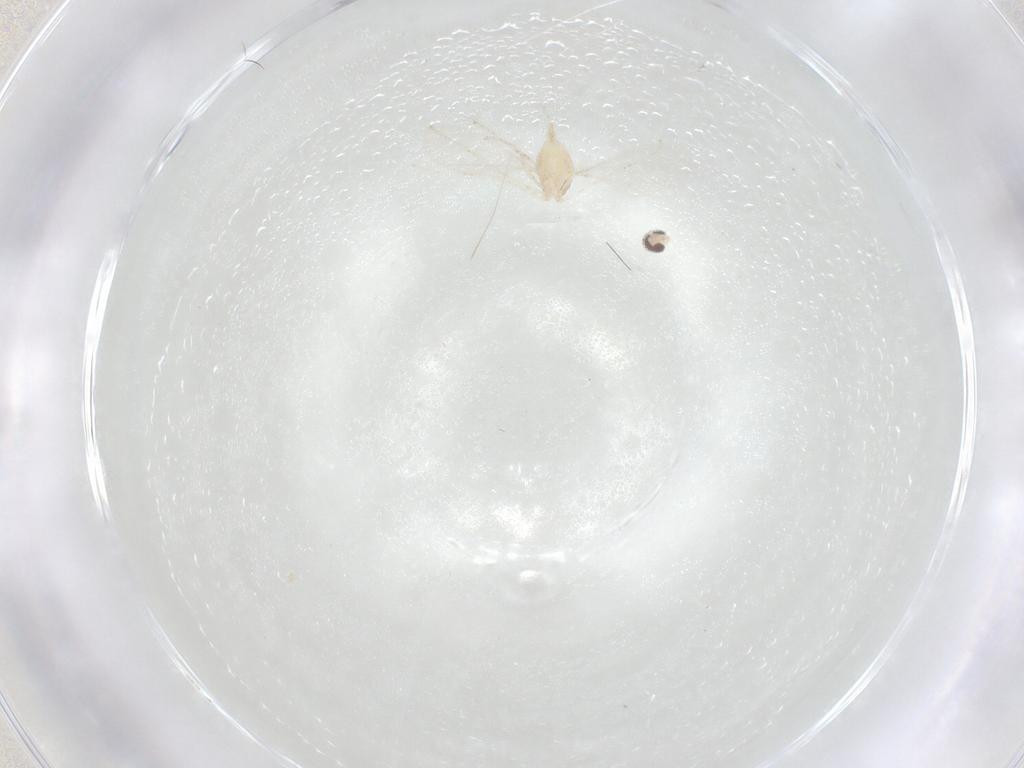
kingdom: Animalia
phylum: Arthropoda
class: Insecta
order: Diptera
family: Cecidomyiidae
